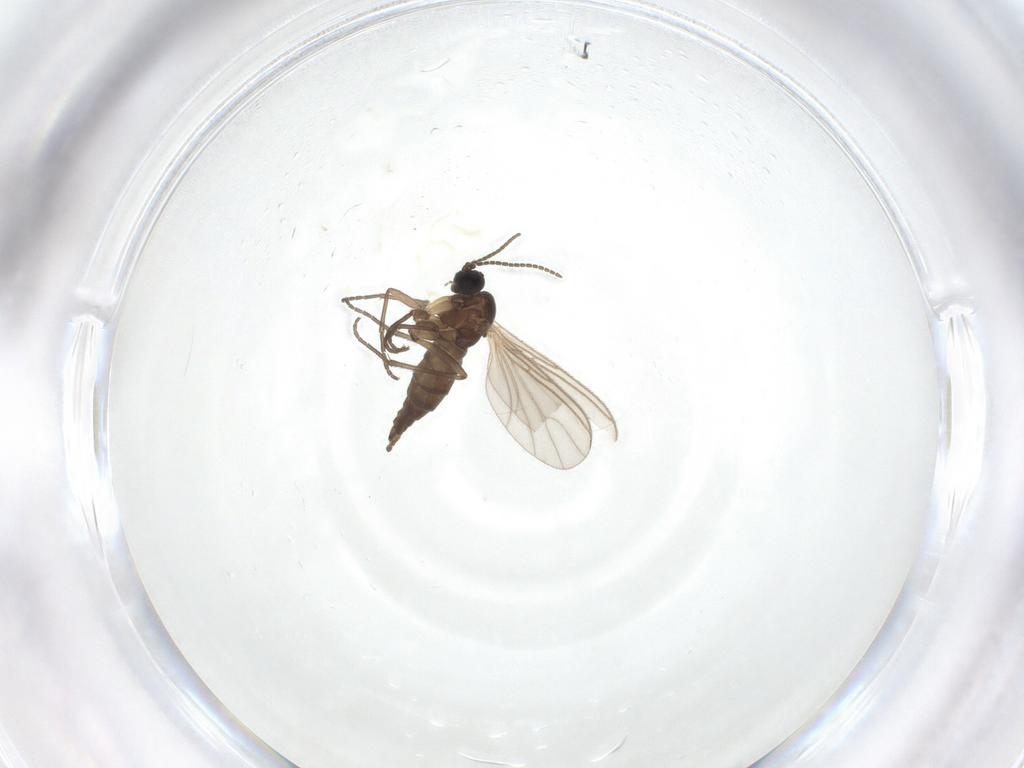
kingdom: Animalia
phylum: Arthropoda
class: Insecta
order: Diptera
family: Sciaridae
